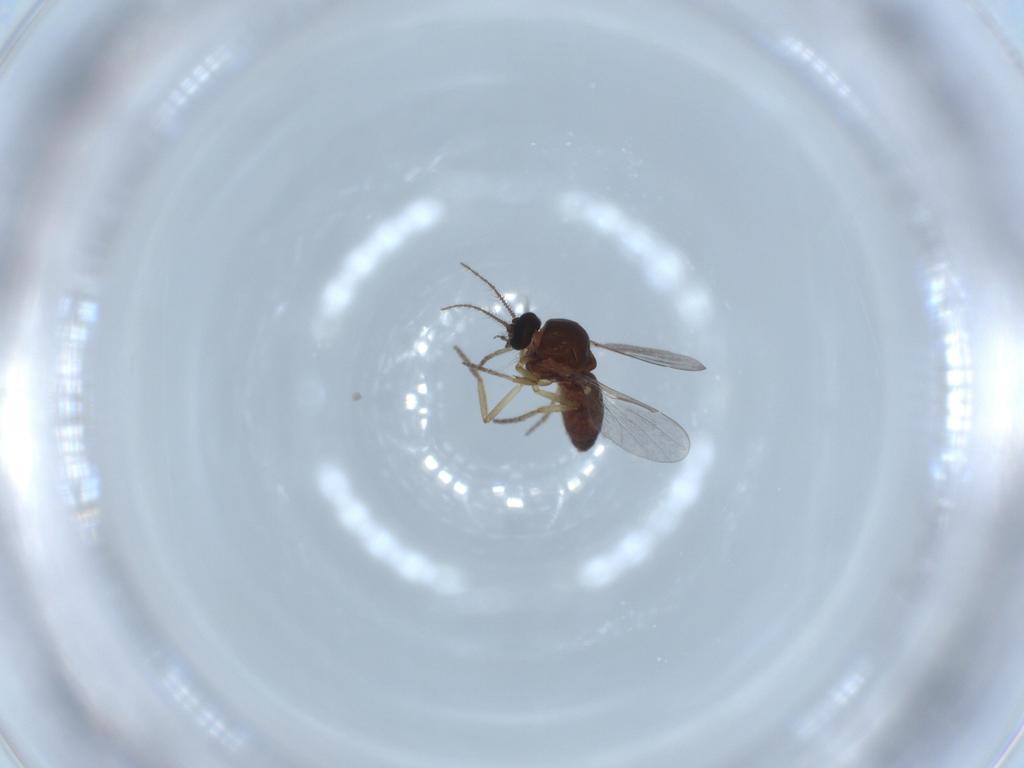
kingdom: Animalia
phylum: Arthropoda
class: Insecta
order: Diptera
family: Ceratopogonidae
